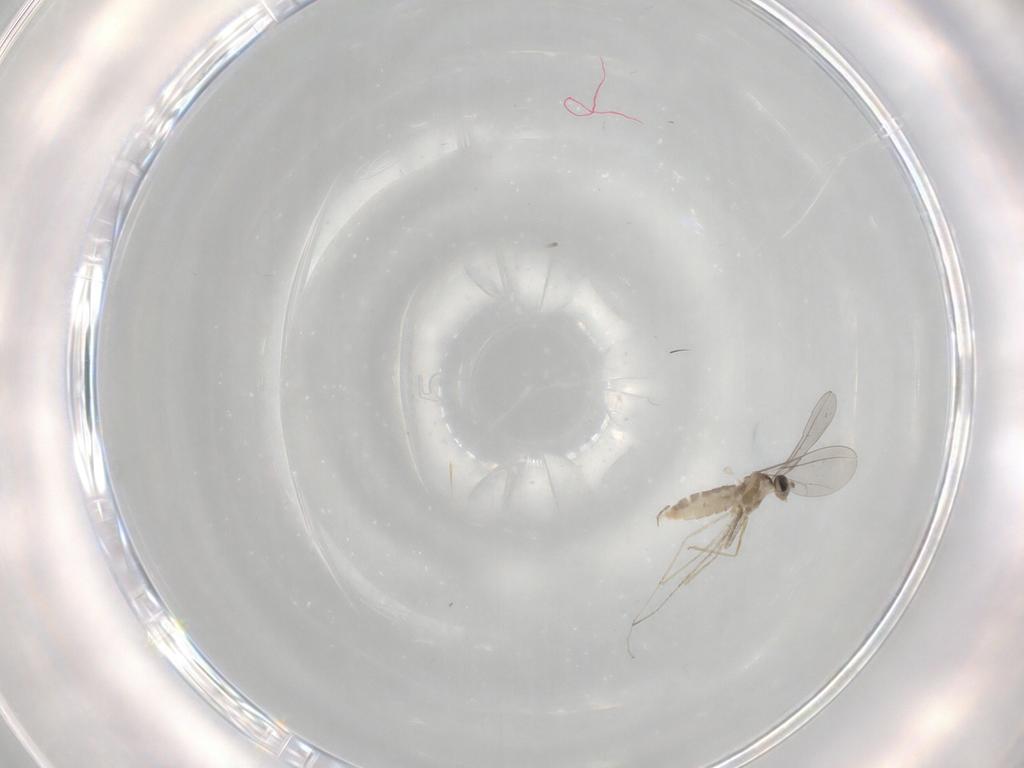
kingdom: Animalia
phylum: Arthropoda
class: Insecta
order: Diptera
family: Cecidomyiidae
